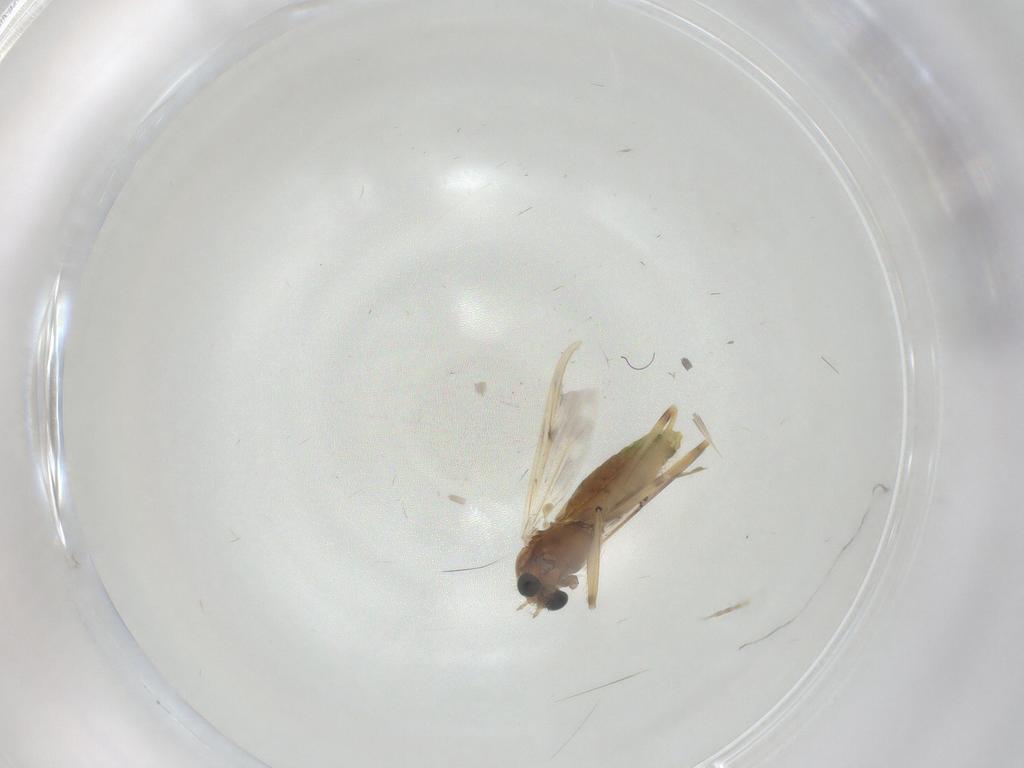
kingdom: Animalia
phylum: Arthropoda
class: Insecta
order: Diptera
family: Chironomidae
